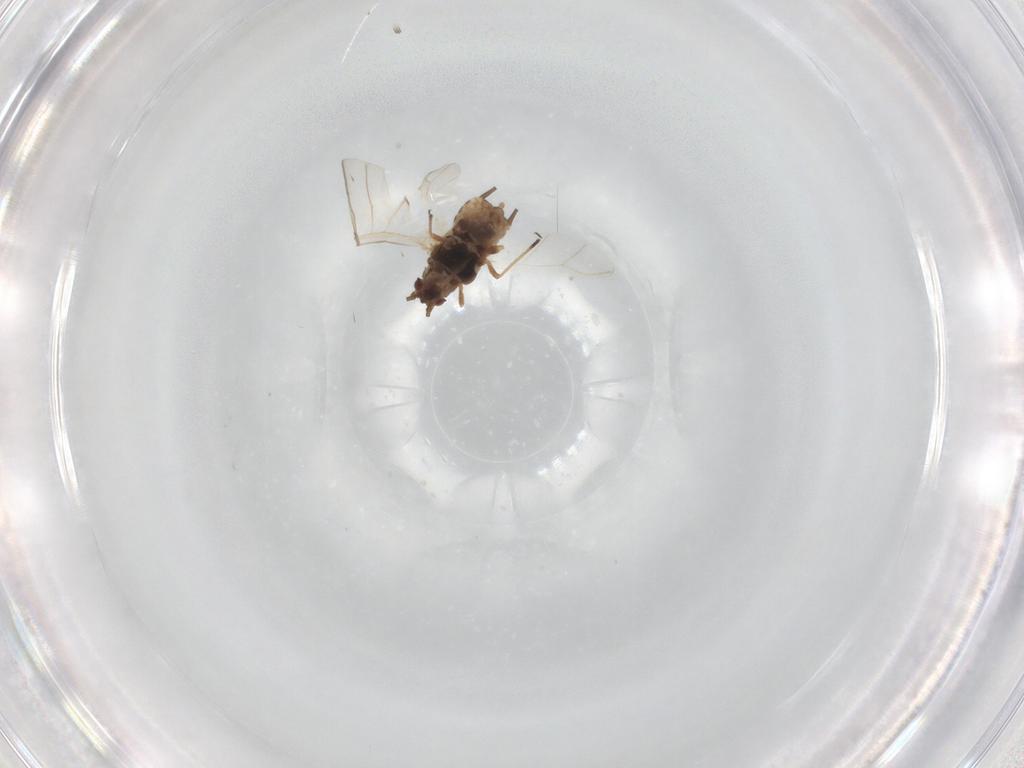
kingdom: Animalia
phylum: Arthropoda
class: Insecta
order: Hemiptera
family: Aphididae
